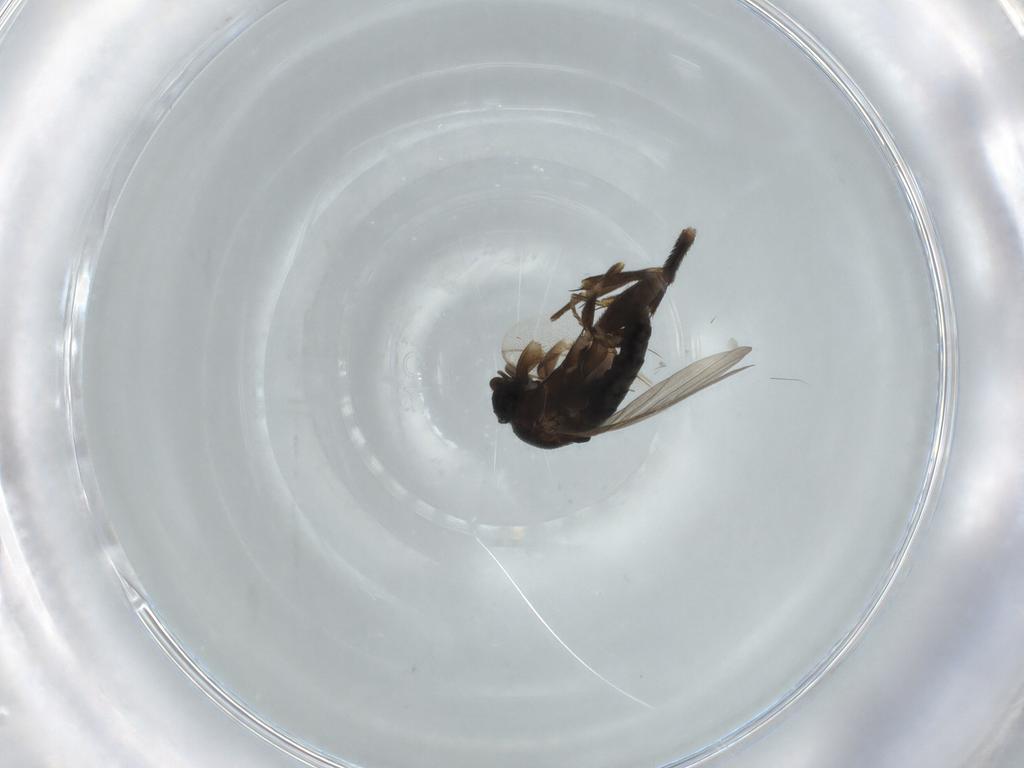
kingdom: Animalia
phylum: Arthropoda
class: Insecta
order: Diptera
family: Phoridae
